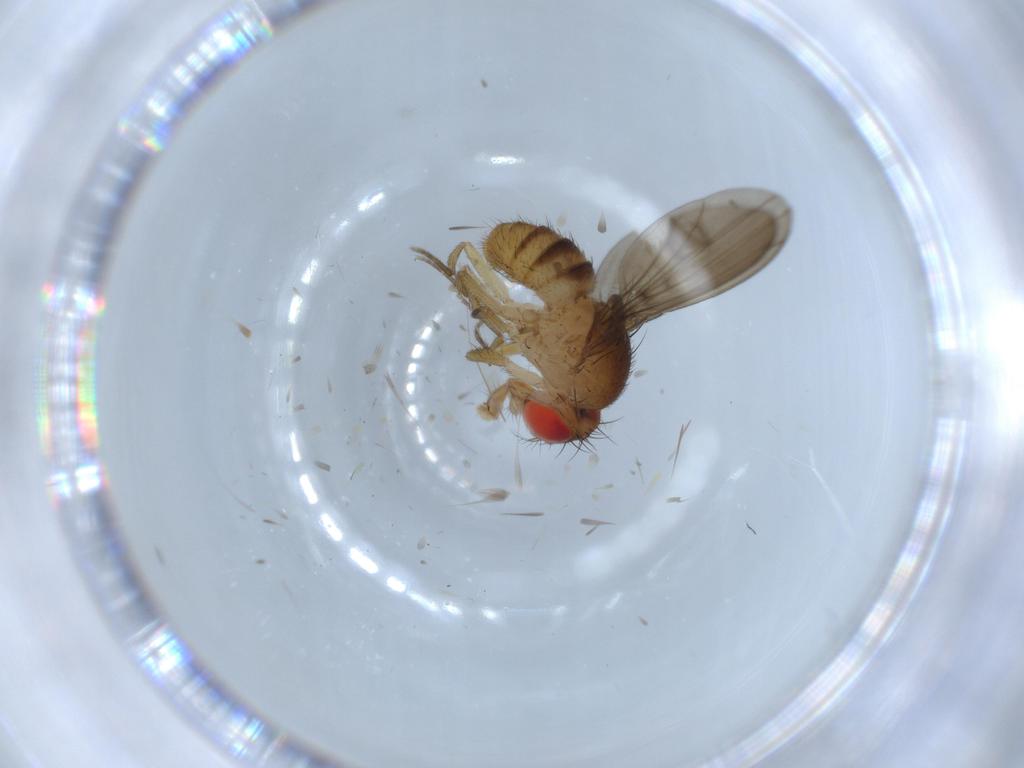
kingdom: Animalia
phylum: Arthropoda
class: Insecta
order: Diptera
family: Drosophilidae
